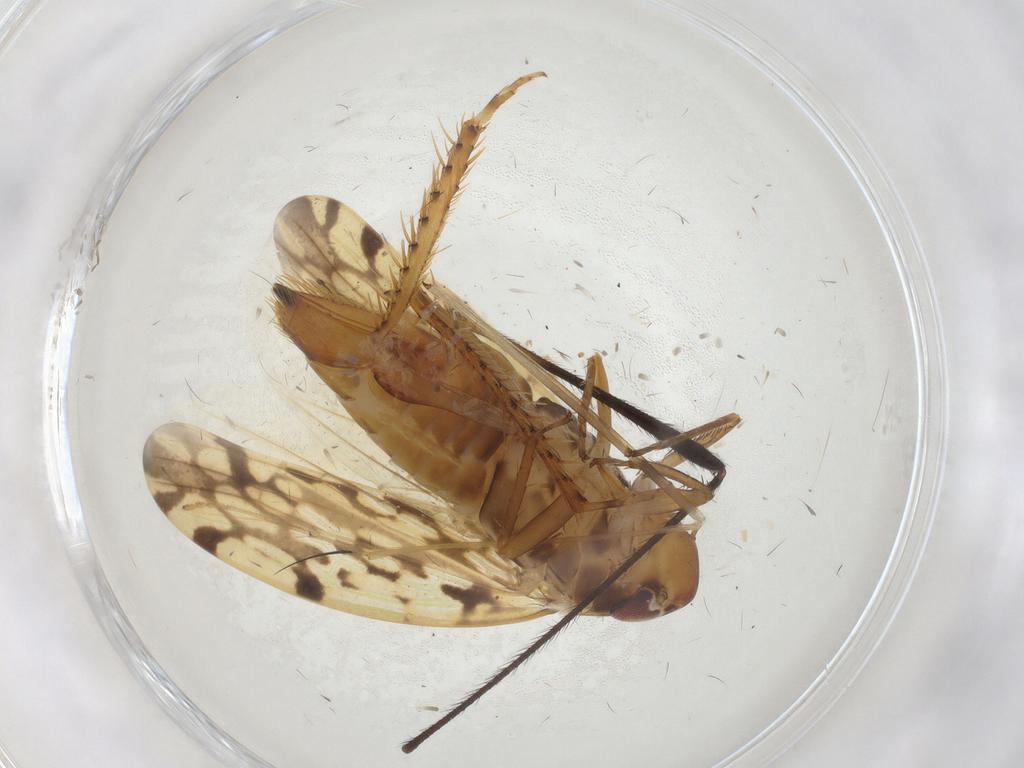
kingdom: Animalia
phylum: Arthropoda
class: Insecta
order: Hemiptera
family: Cicadellidae
